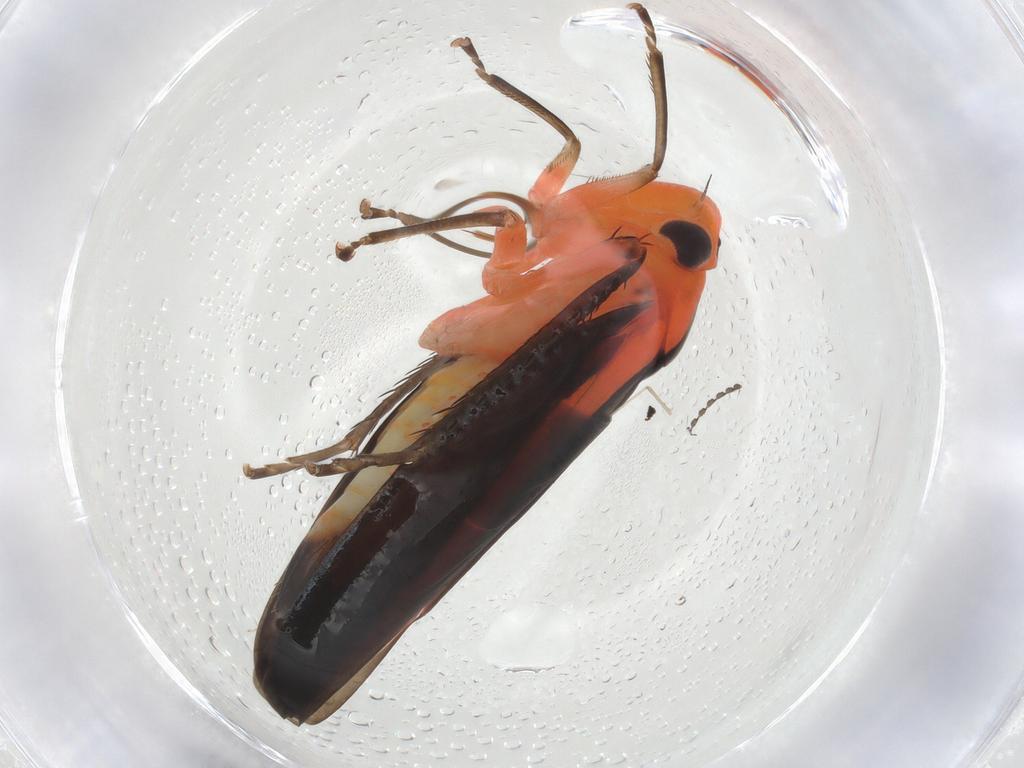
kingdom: Animalia
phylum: Arthropoda
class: Insecta
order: Hemiptera
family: Cicadellidae
